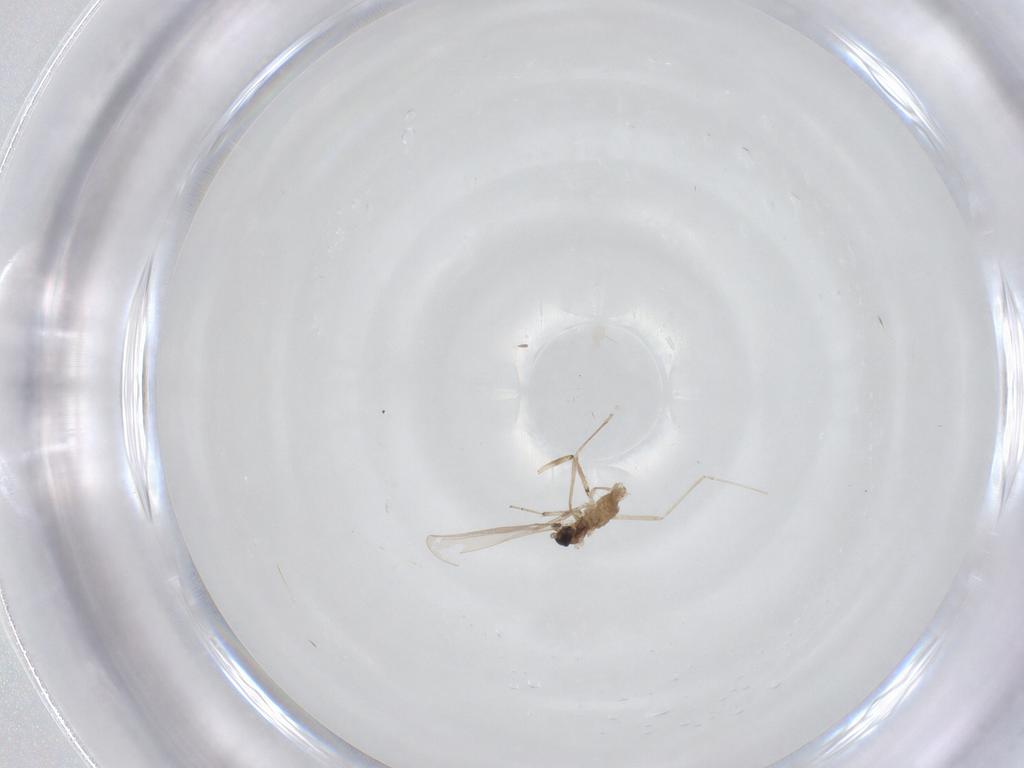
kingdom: Animalia
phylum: Arthropoda
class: Insecta
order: Diptera
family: Cecidomyiidae
